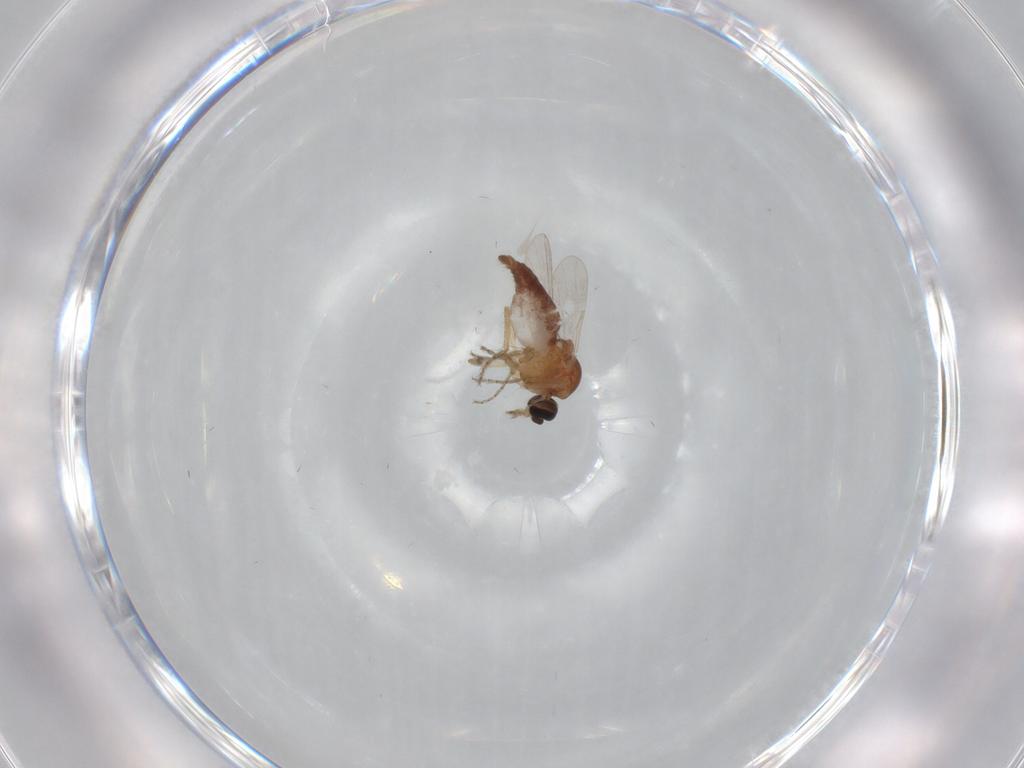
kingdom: Animalia
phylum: Arthropoda
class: Insecta
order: Diptera
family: Ceratopogonidae
